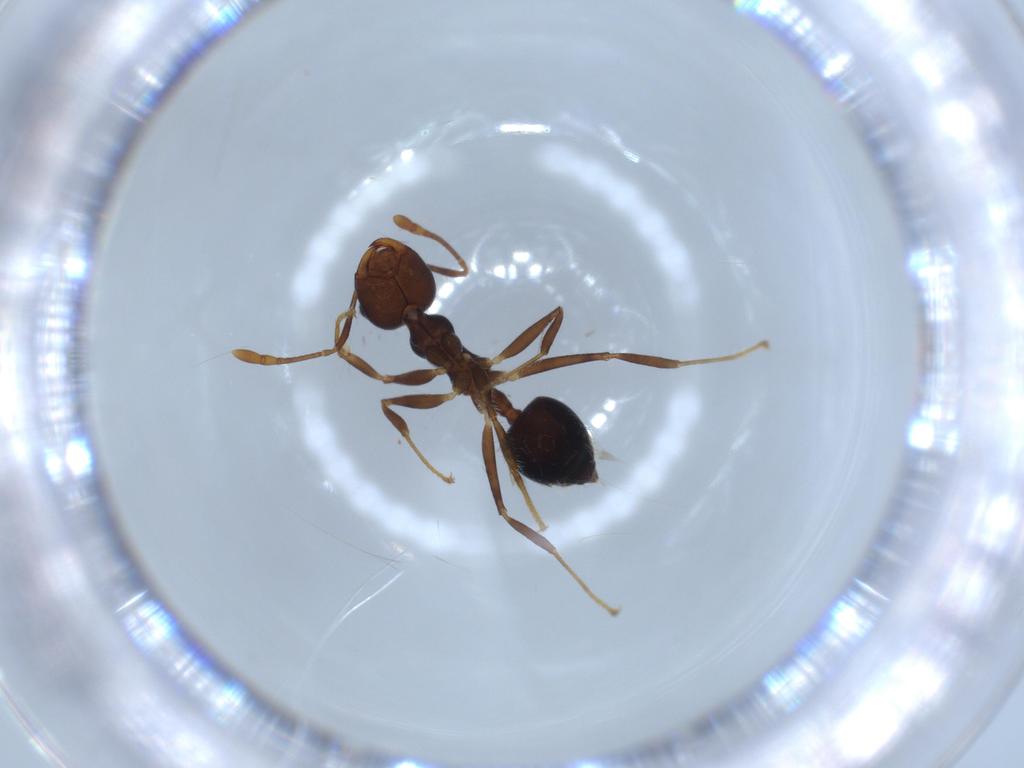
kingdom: Animalia
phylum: Arthropoda
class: Insecta
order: Hymenoptera
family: Formicidae
